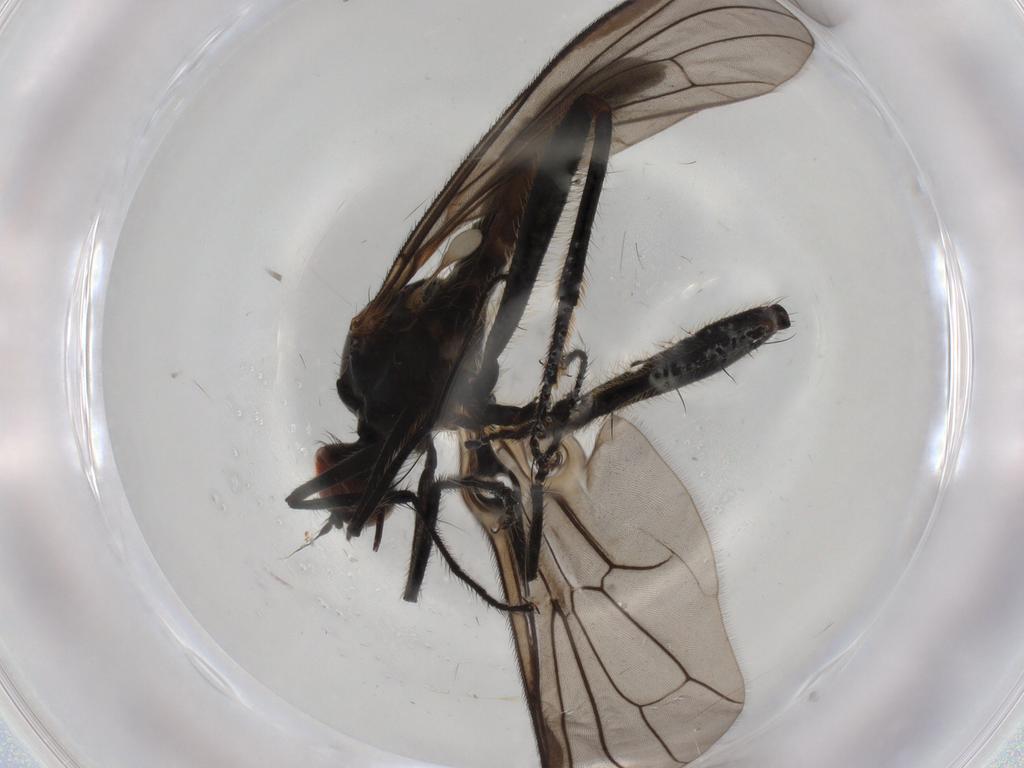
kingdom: Animalia
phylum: Arthropoda
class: Insecta
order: Diptera
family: Hybotidae
